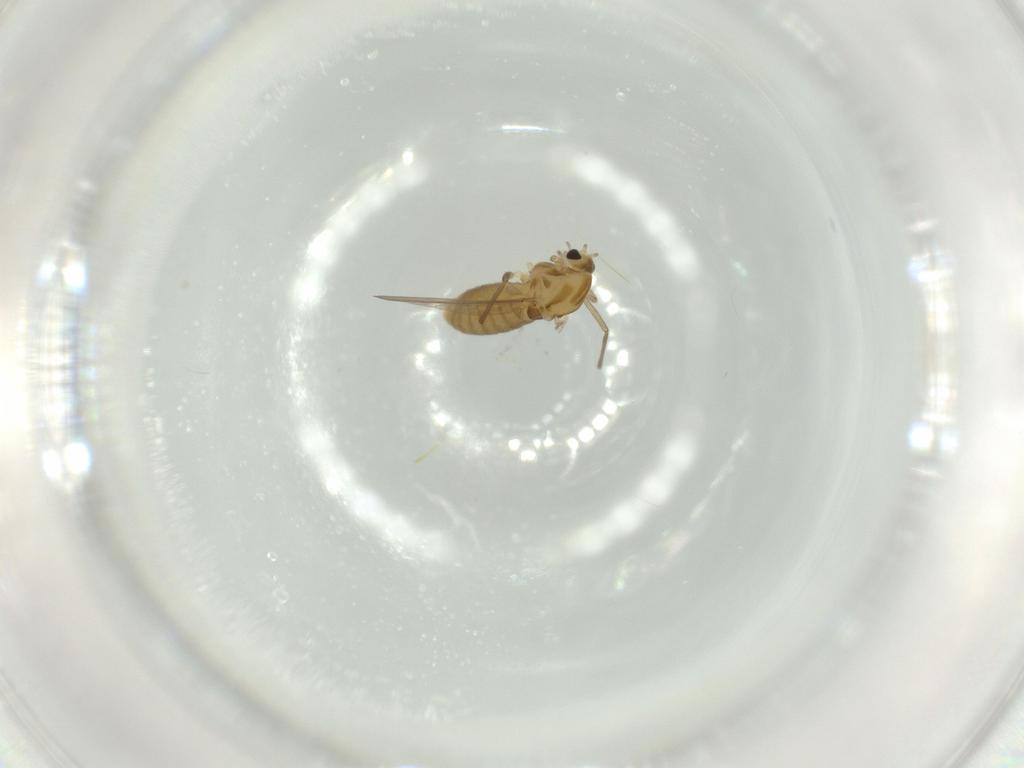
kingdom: Animalia
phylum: Arthropoda
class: Insecta
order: Diptera
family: Chironomidae
